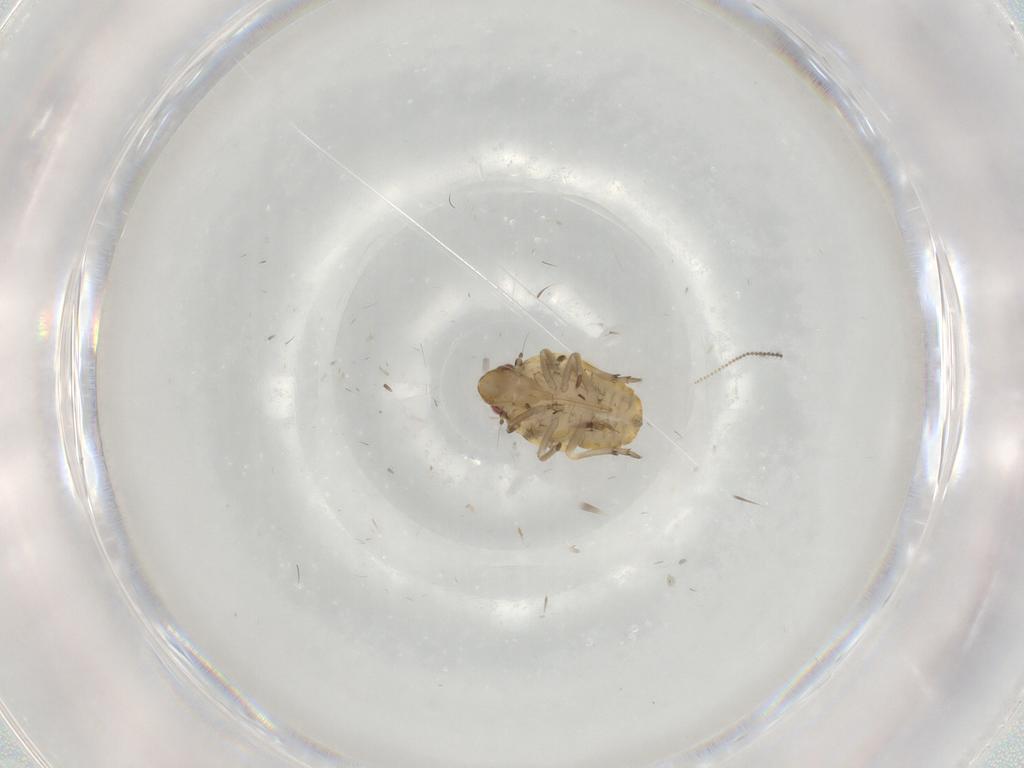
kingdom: Animalia
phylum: Arthropoda
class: Insecta
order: Hemiptera
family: Flatidae
